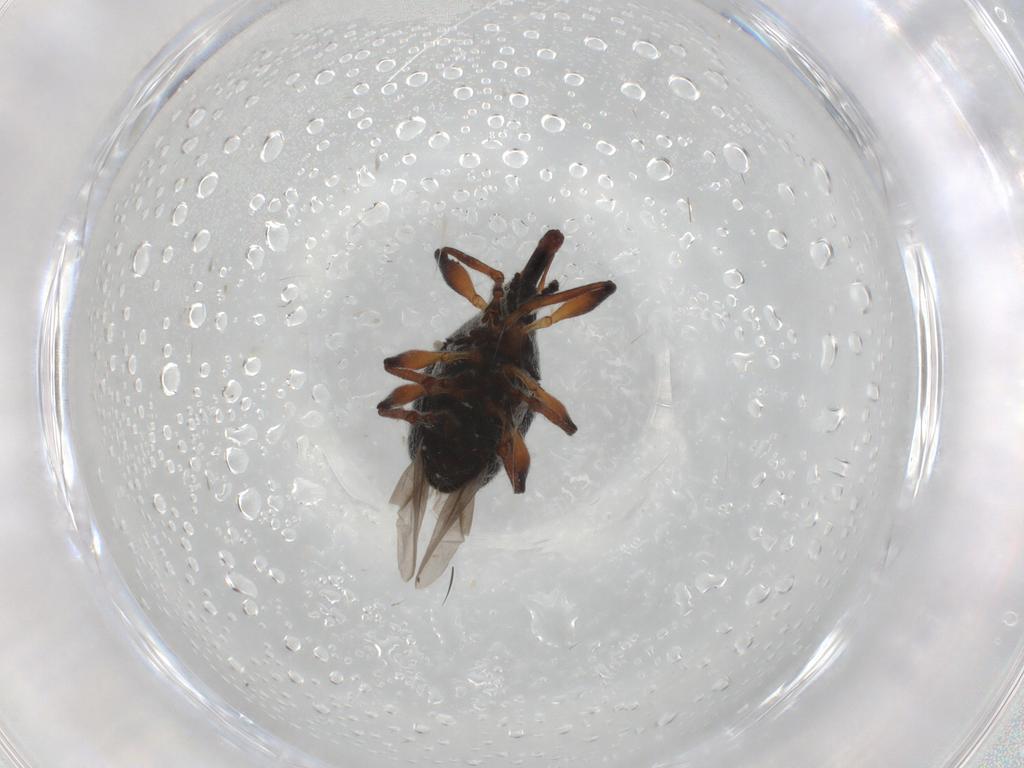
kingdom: Animalia
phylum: Arthropoda
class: Insecta
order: Coleoptera
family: Brentidae
